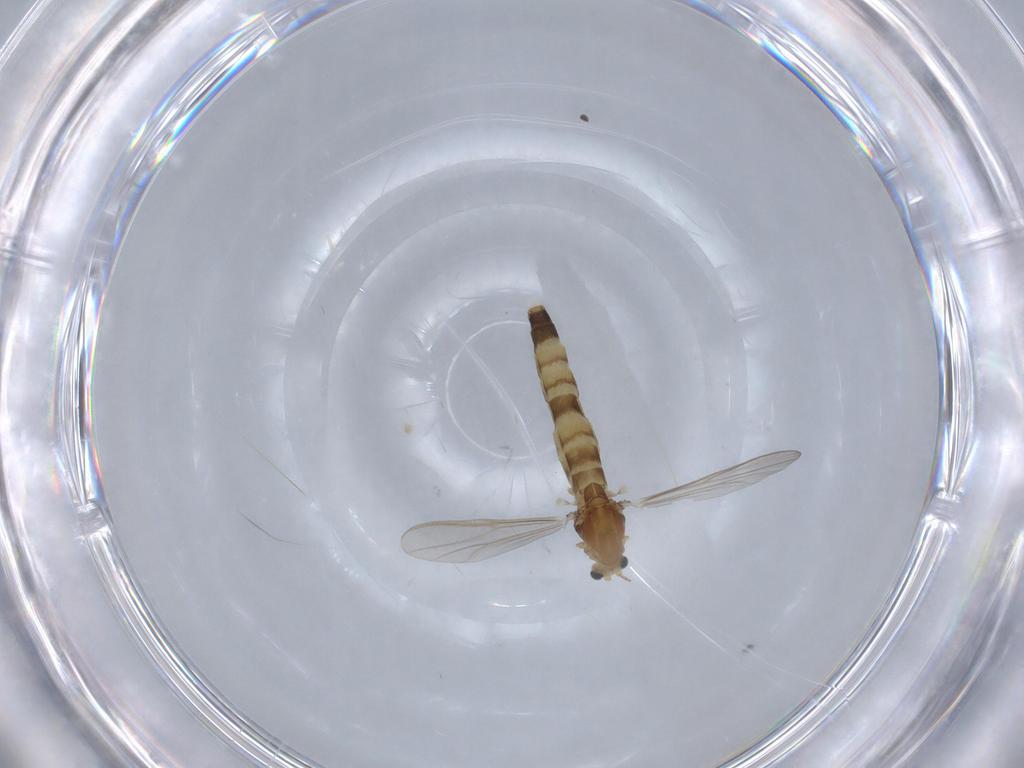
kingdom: Animalia
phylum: Arthropoda
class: Insecta
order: Diptera
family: Chironomidae
